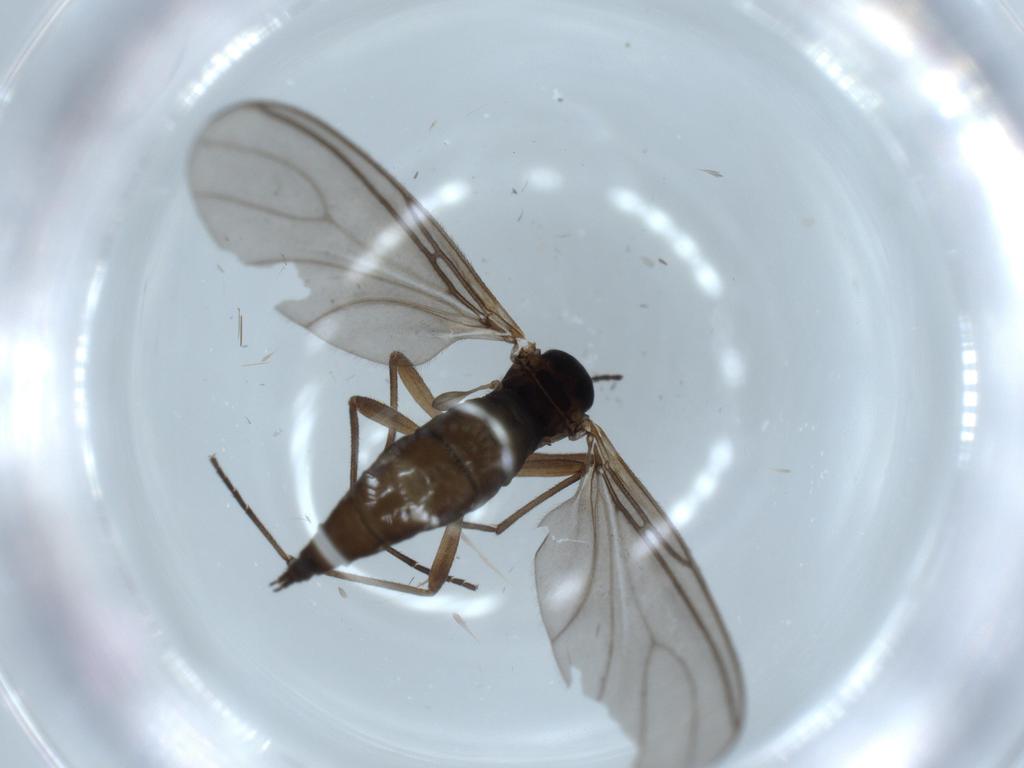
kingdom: Animalia
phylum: Arthropoda
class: Insecta
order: Diptera
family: Sciaridae
